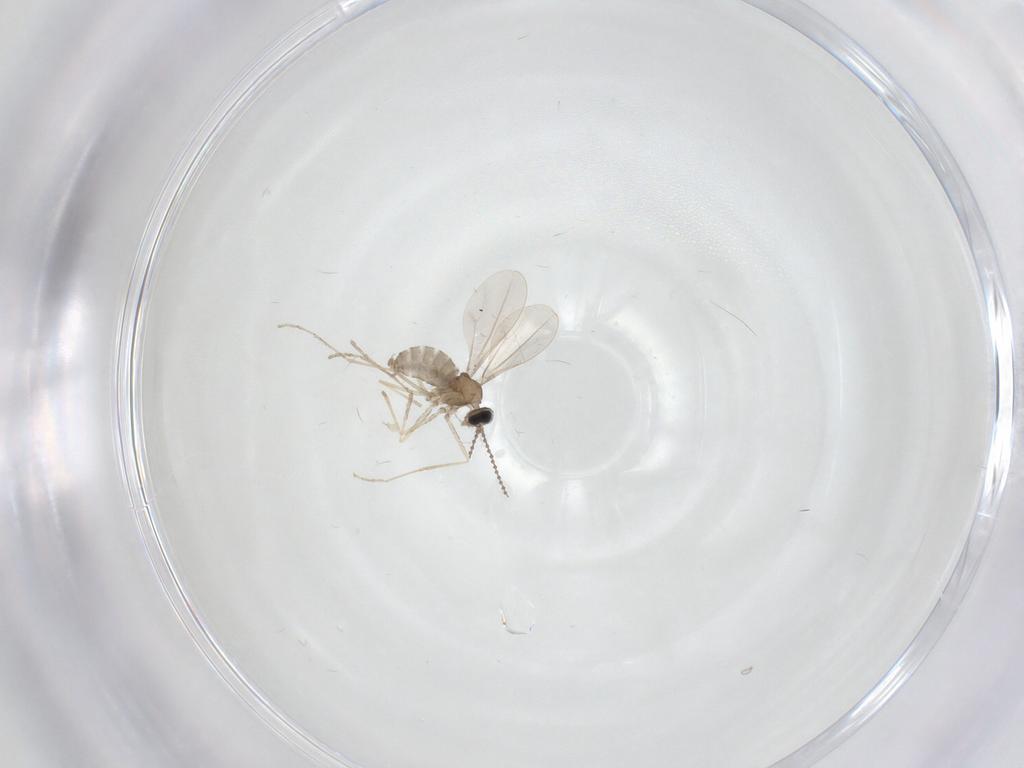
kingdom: Animalia
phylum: Arthropoda
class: Insecta
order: Diptera
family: Cecidomyiidae
